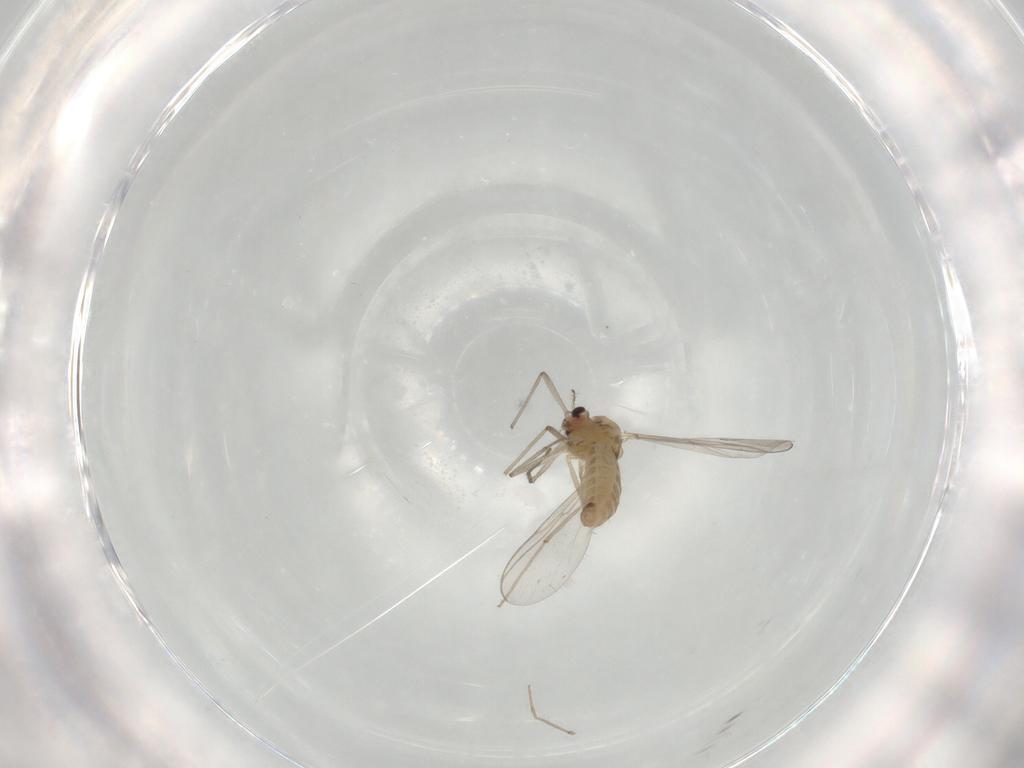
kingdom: Animalia
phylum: Arthropoda
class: Insecta
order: Diptera
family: Chironomidae
